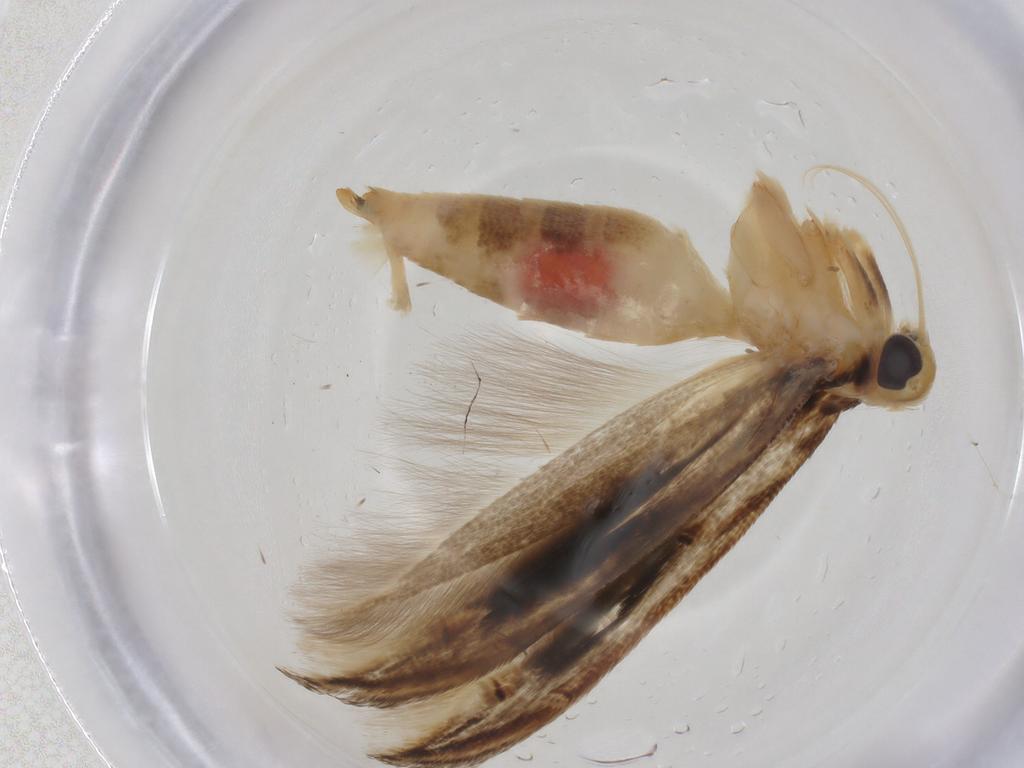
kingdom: Animalia
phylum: Arthropoda
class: Insecta
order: Lepidoptera
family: Momphidae
